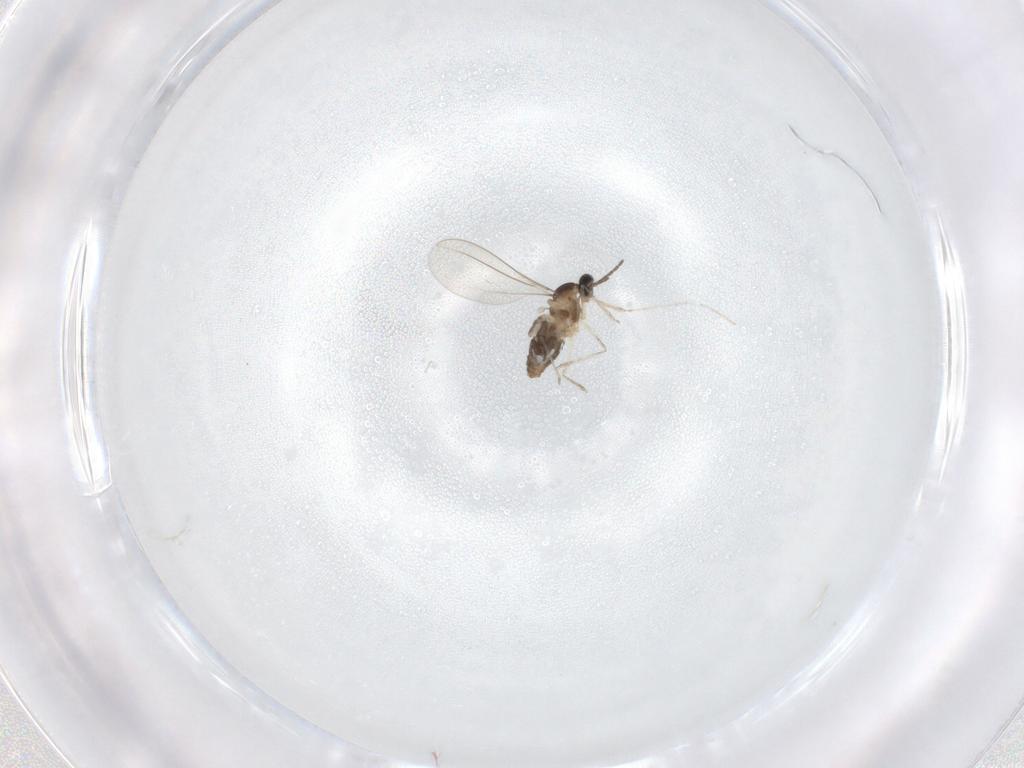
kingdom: Animalia
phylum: Arthropoda
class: Insecta
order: Diptera
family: Cecidomyiidae
